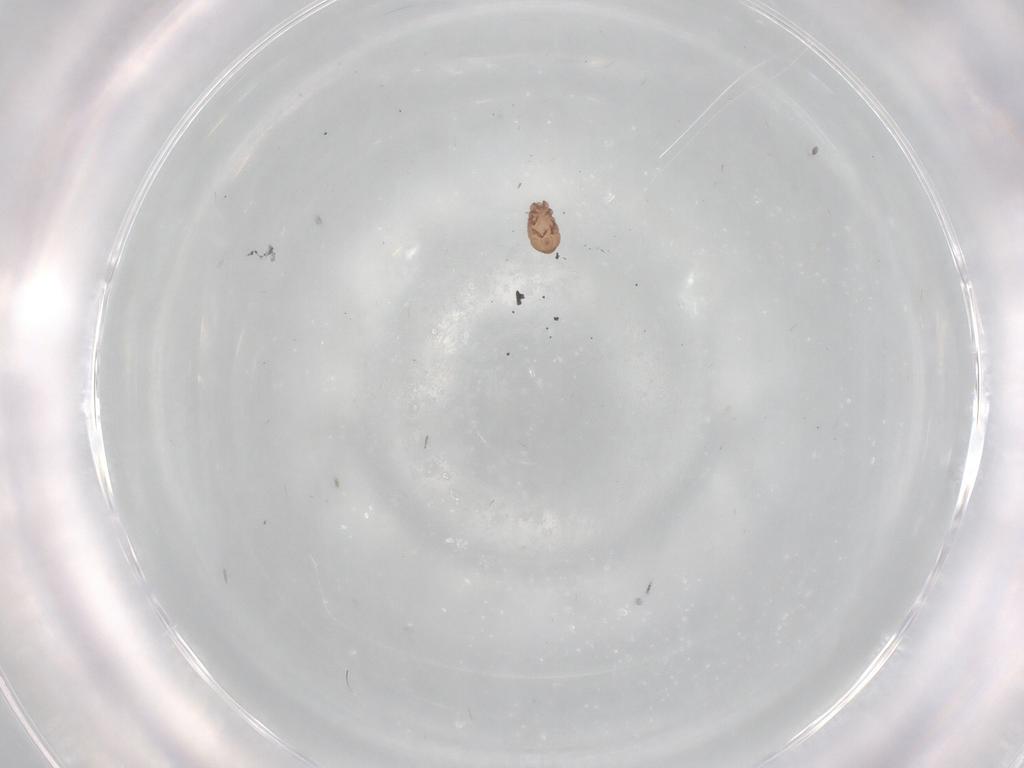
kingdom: Animalia
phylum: Arthropoda
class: Arachnida
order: Sarcoptiformes
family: Eremaeidae
